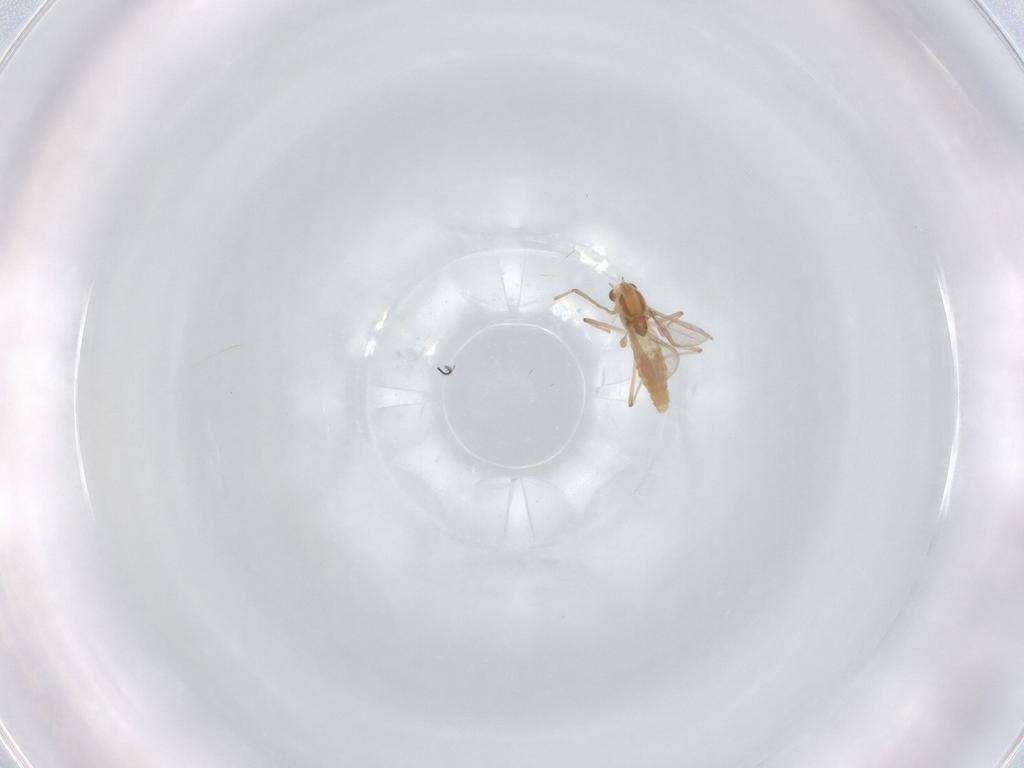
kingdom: Animalia
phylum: Arthropoda
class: Insecta
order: Diptera
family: Chironomidae
